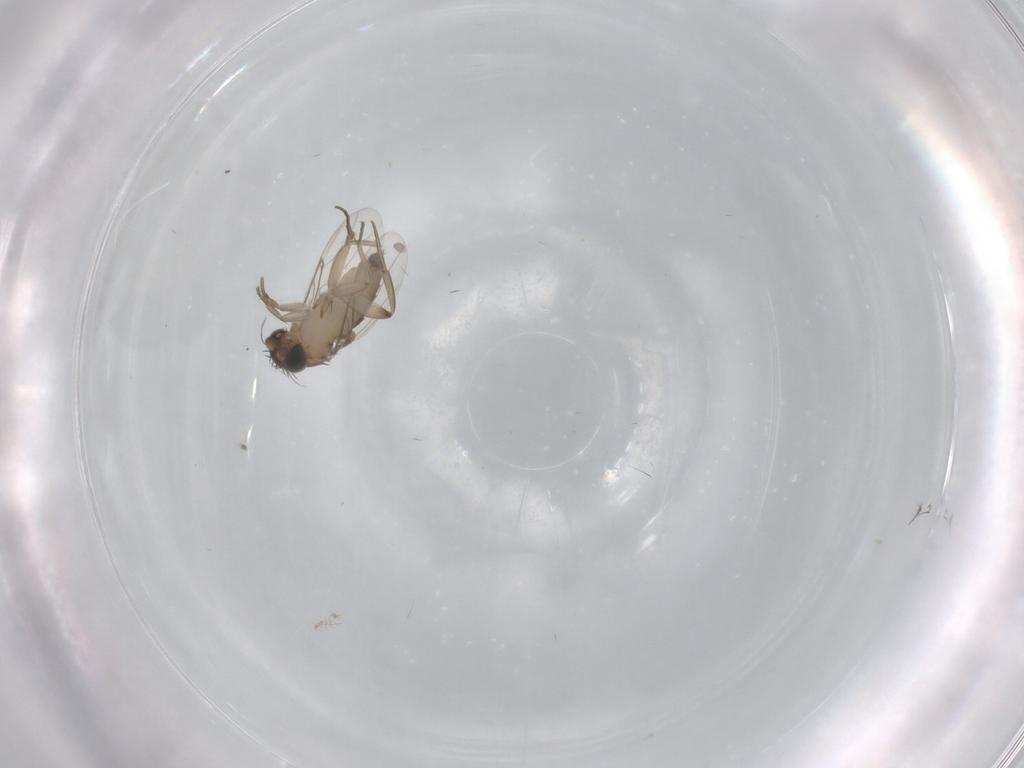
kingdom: Animalia
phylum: Arthropoda
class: Insecta
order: Diptera
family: Phoridae
